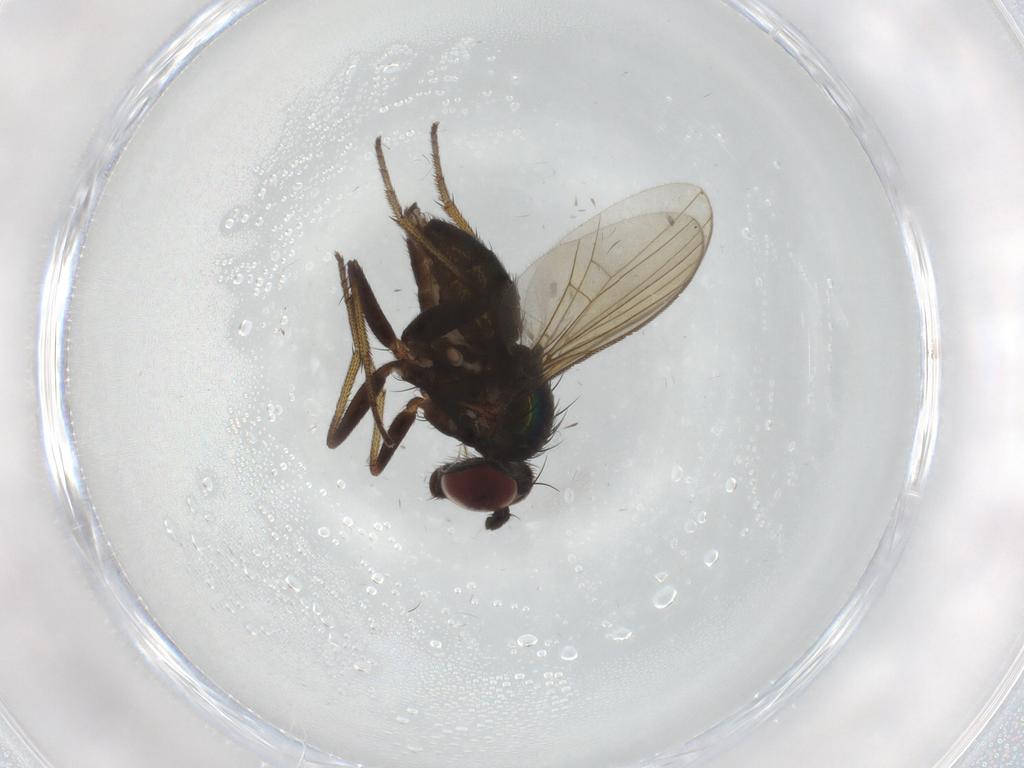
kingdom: Animalia
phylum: Arthropoda
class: Insecta
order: Diptera
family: Dolichopodidae
